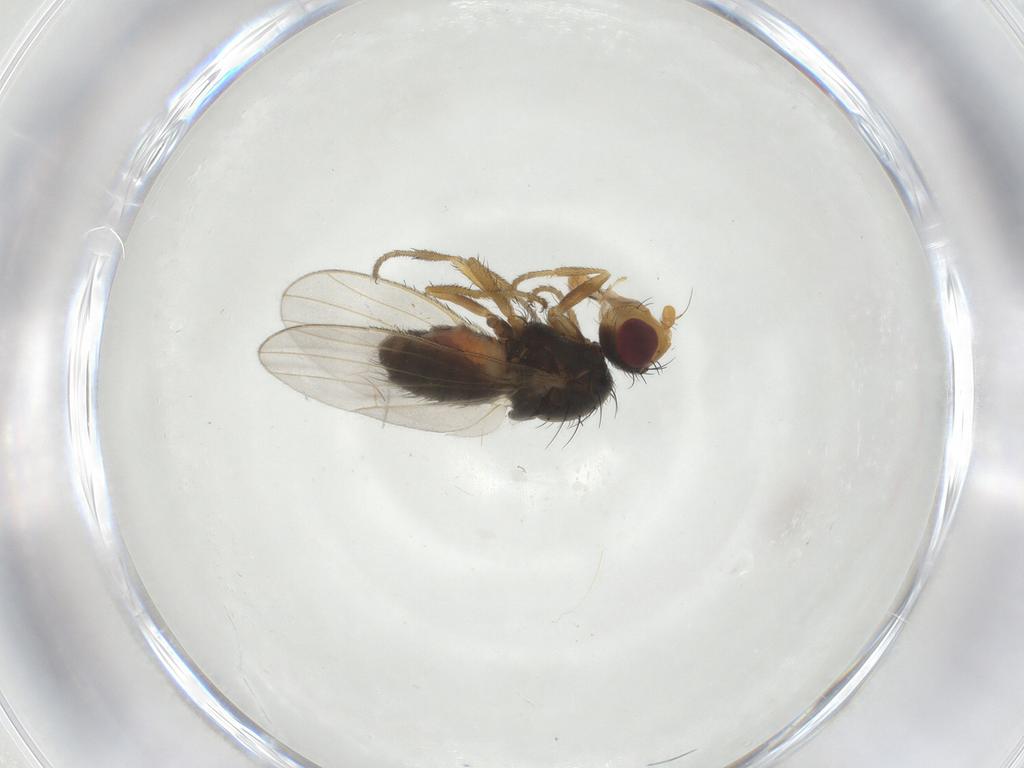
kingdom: Animalia
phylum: Arthropoda
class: Insecta
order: Diptera
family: Heleomyzidae
